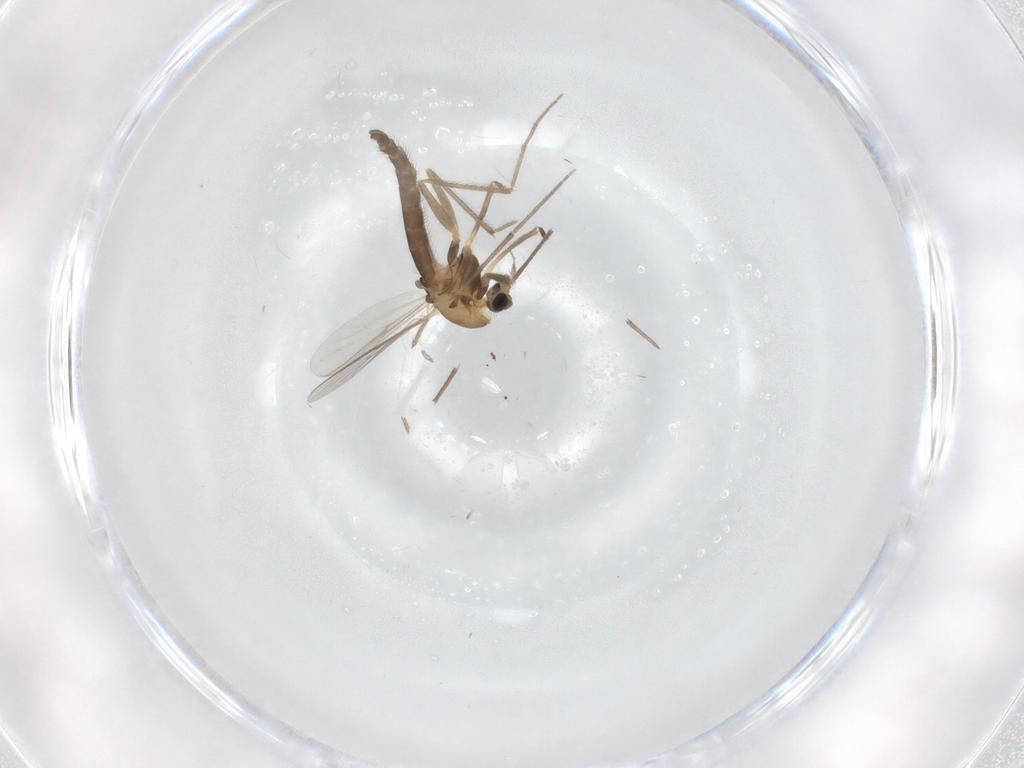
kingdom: Animalia
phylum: Arthropoda
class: Insecta
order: Diptera
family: Chironomidae
